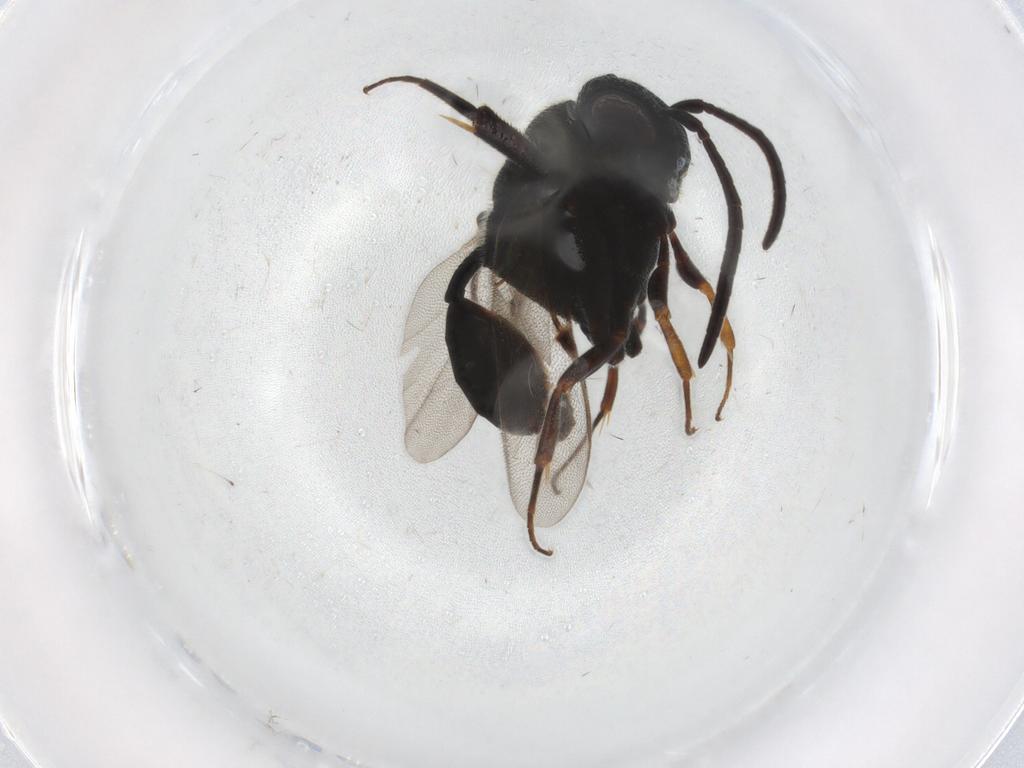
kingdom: Animalia
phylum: Arthropoda
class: Insecta
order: Hymenoptera
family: Evaniidae
